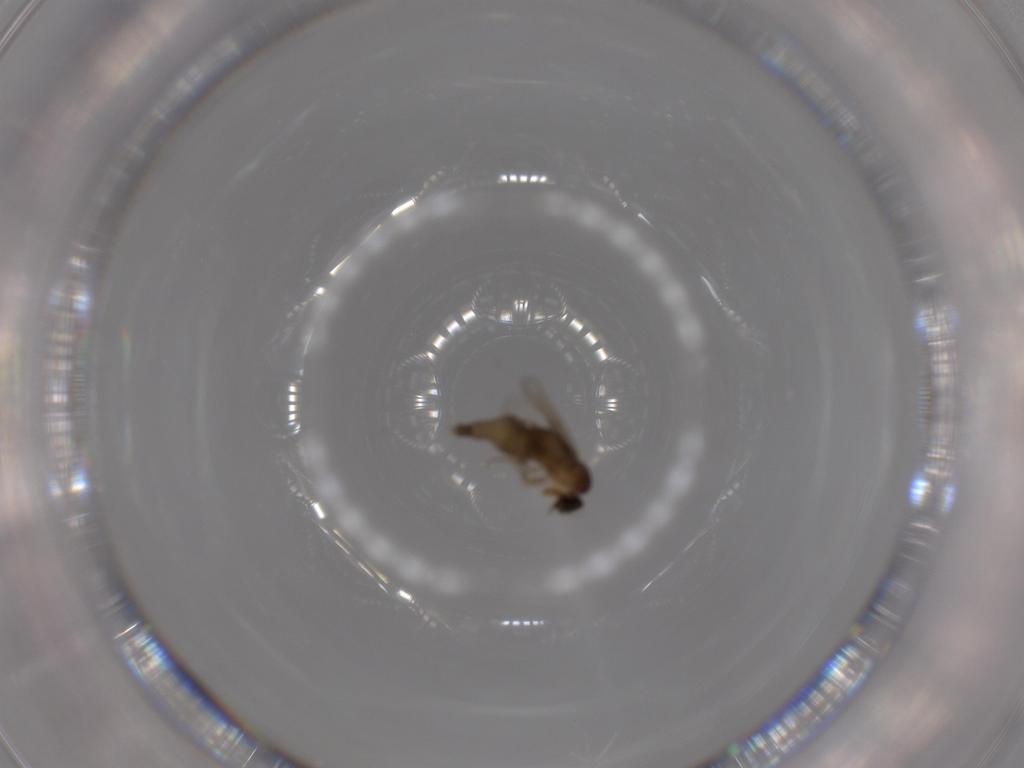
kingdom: Animalia
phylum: Arthropoda
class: Insecta
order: Diptera
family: Phoridae
